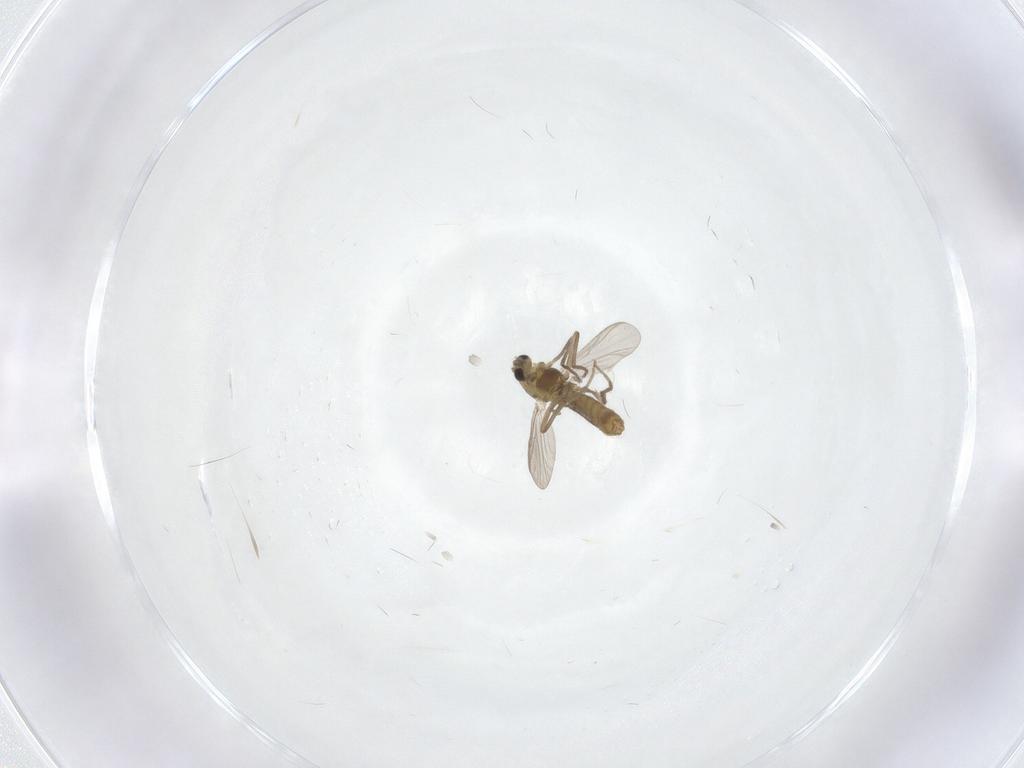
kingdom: Animalia
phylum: Arthropoda
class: Insecta
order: Diptera
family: Chironomidae
